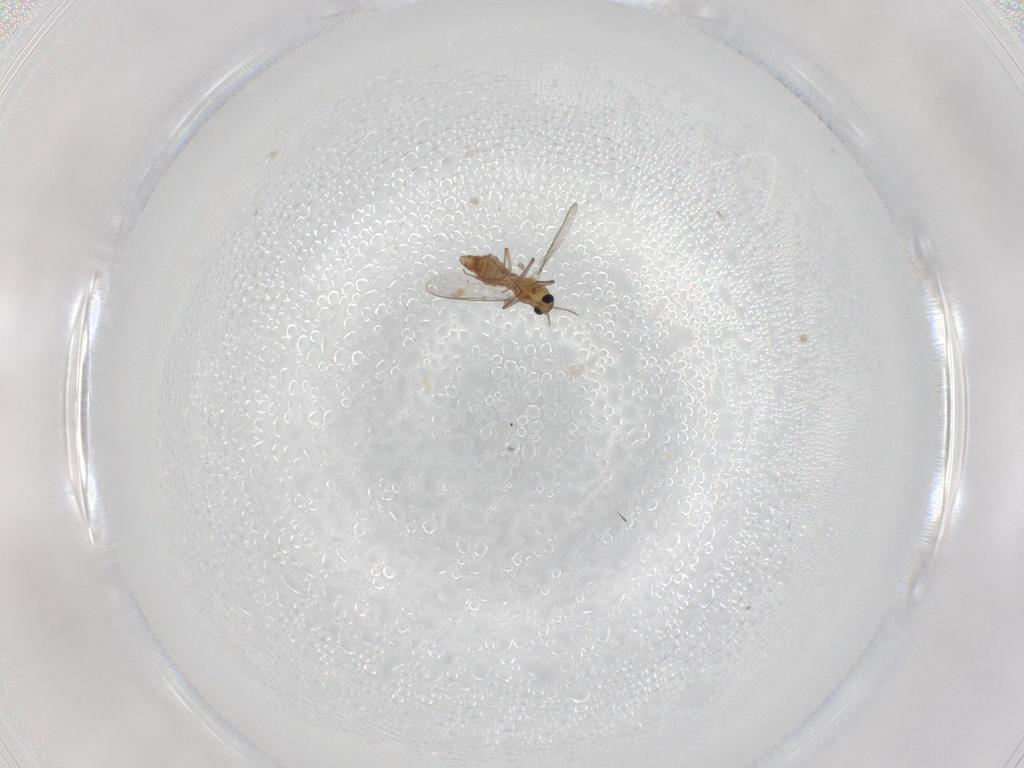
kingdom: Animalia
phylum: Arthropoda
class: Insecta
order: Diptera
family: Chironomidae
